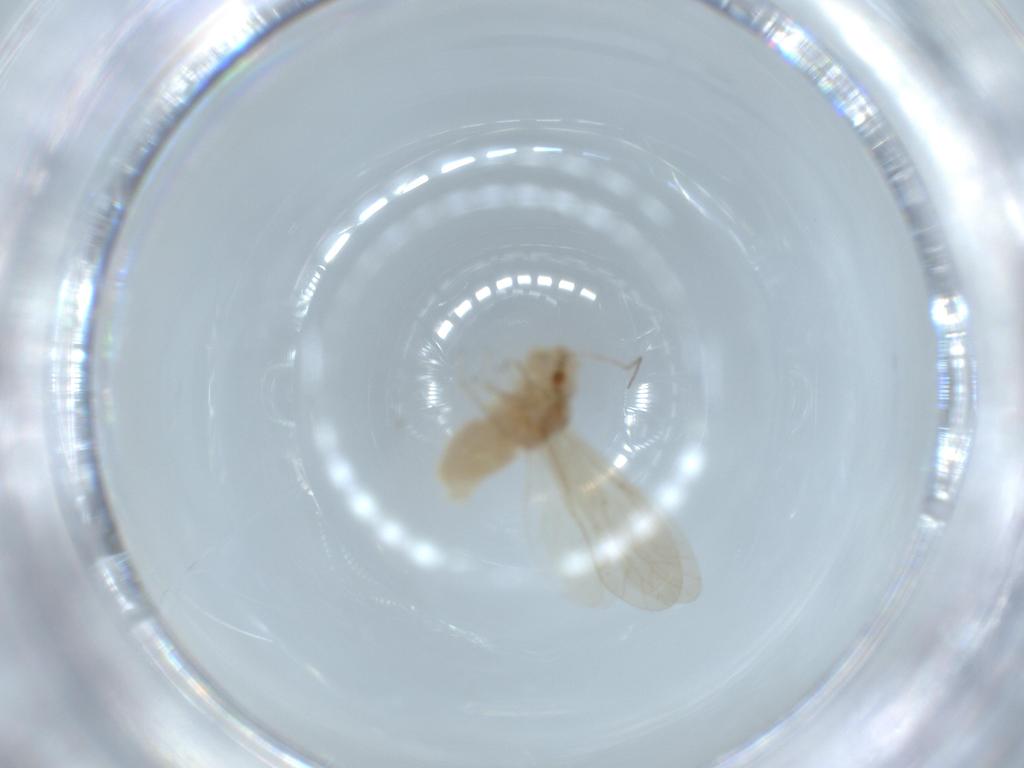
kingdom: Animalia
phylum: Arthropoda
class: Insecta
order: Psocodea
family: Caeciliusidae
